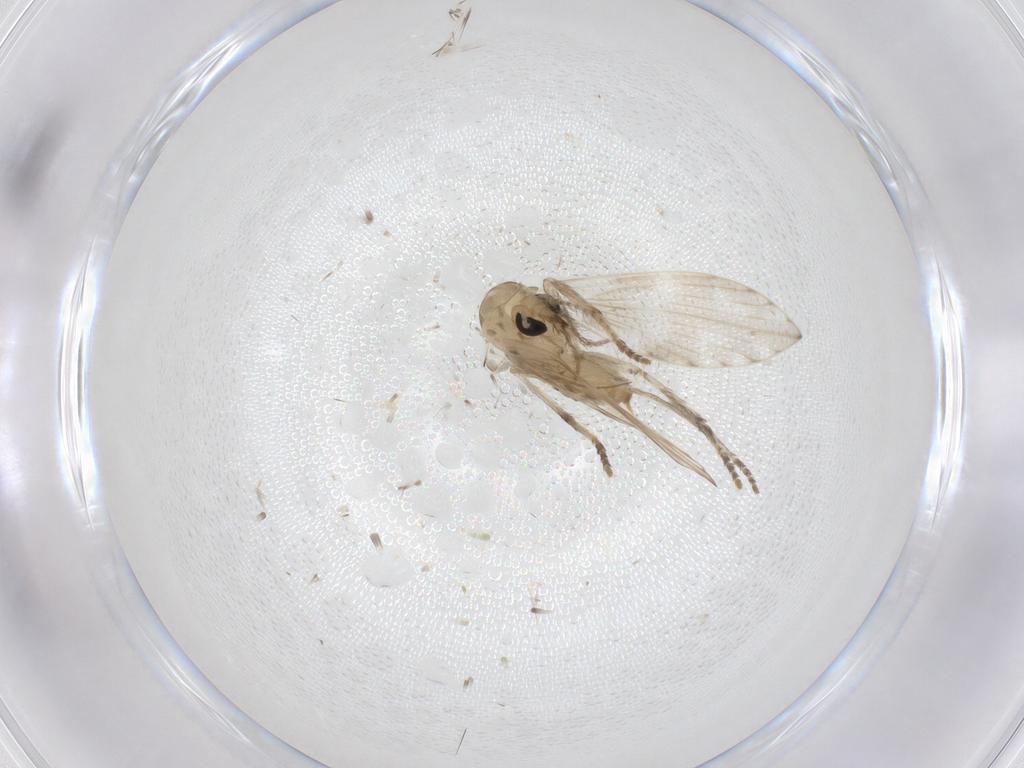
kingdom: Animalia
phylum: Arthropoda
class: Insecta
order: Diptera
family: Psychodidae
